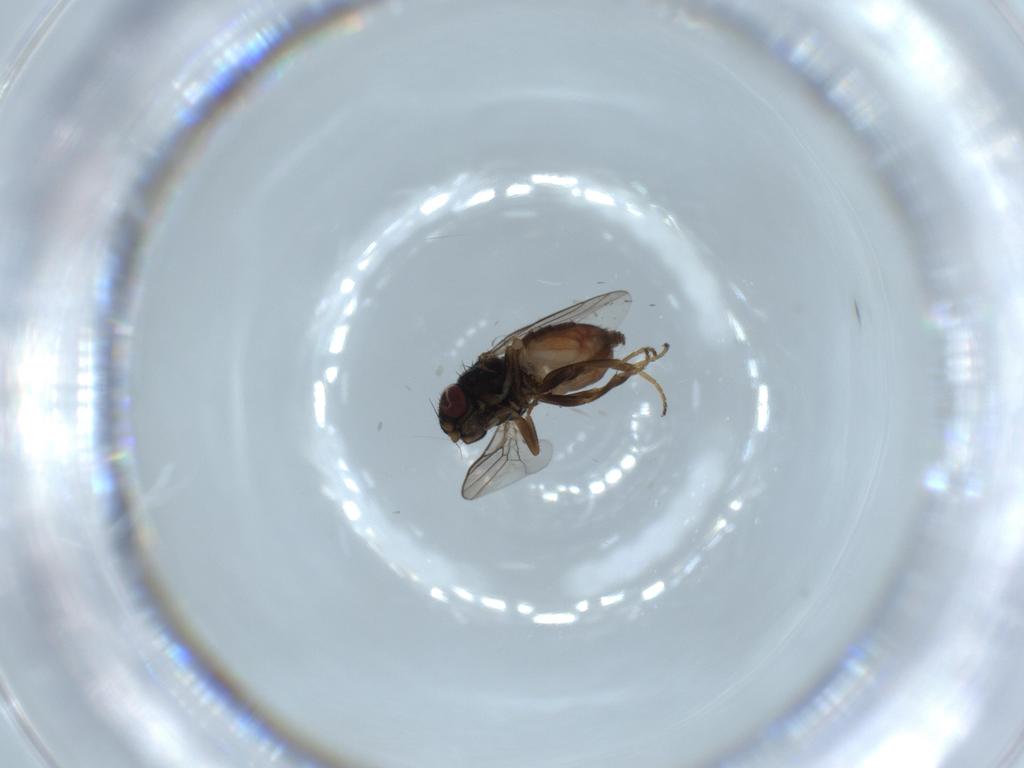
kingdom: Animalia
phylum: Arthropoda
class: Insecta
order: Diptera
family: Chloropidae
